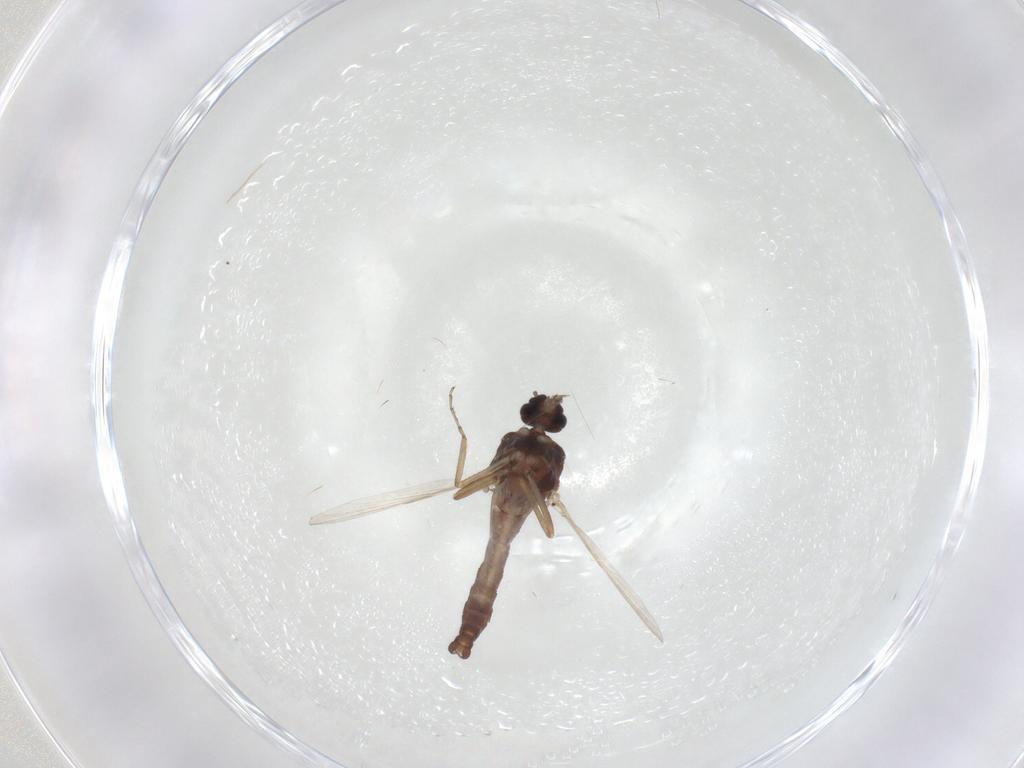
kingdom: Animalia
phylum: Arthropoda
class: Insecta
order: Diptera
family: Ceratopogonidae
